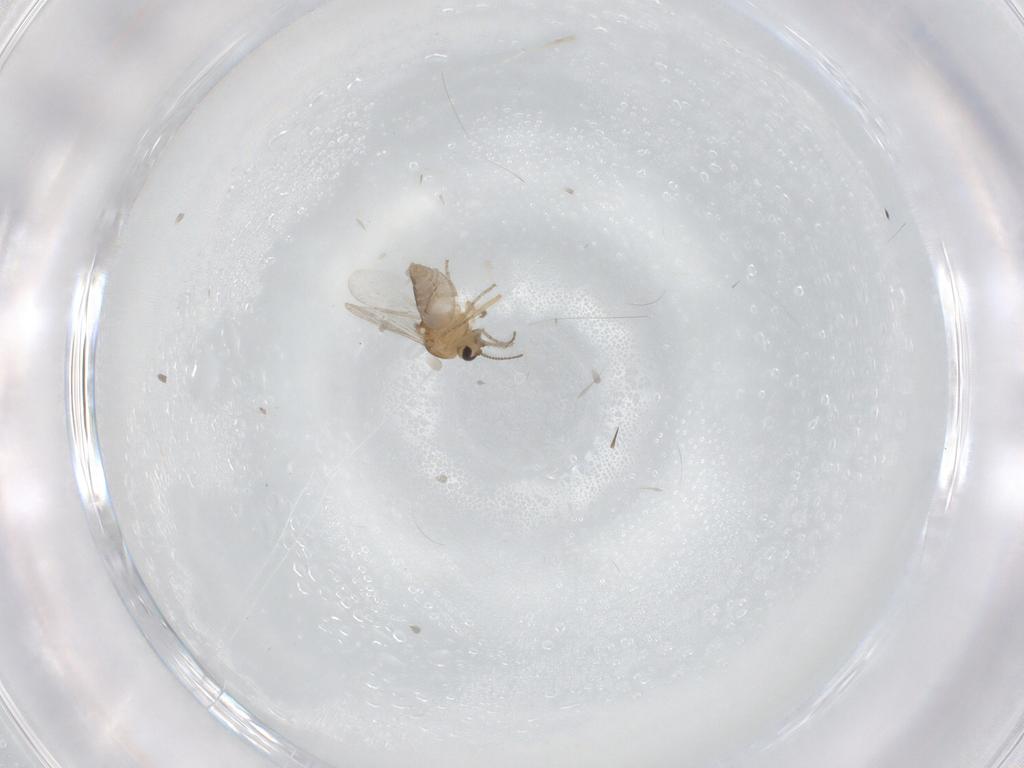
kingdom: Animalia
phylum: Arthropoda
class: Insecta
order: Diptera
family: Ceratopogonidae
